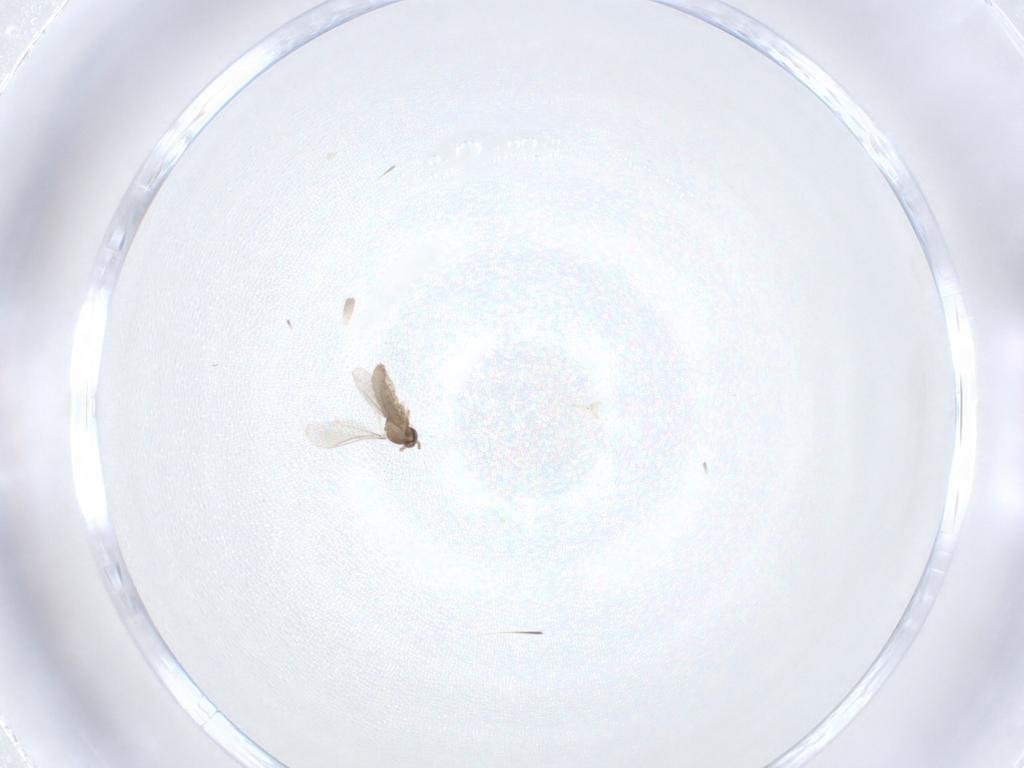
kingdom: Animalia
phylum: Arthropoda
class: Insecta
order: Diptera
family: Cecidomyiidae
